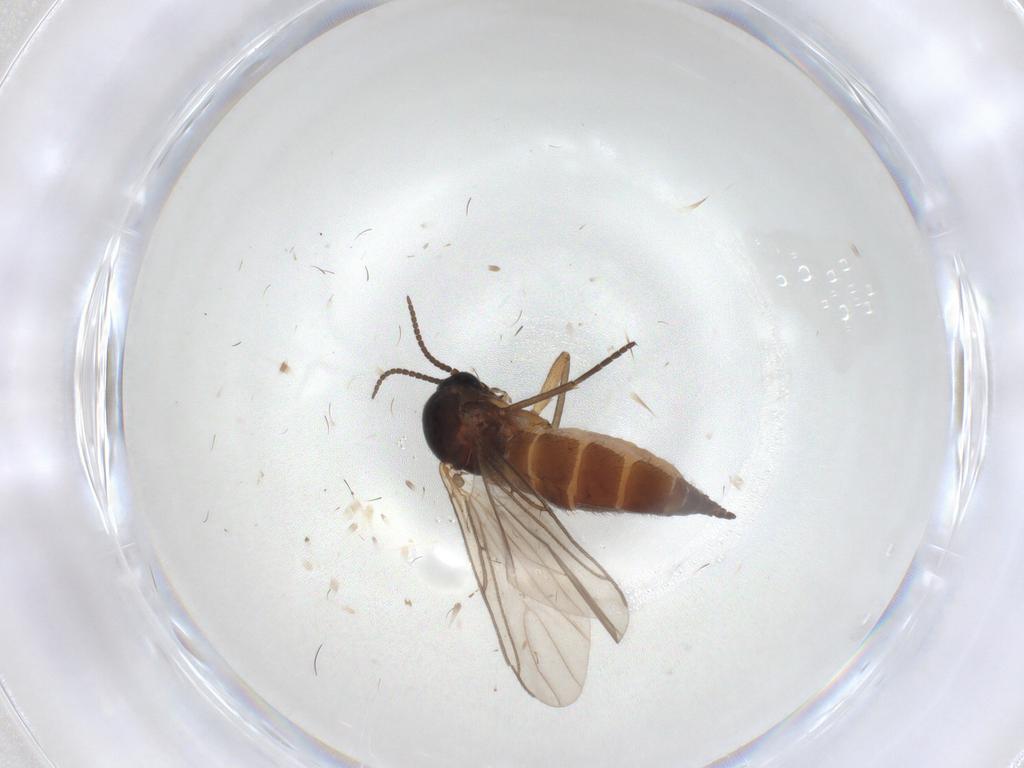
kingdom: Animalia
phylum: Arthropoda
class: Insecta
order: Diptera
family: Sciaridae
